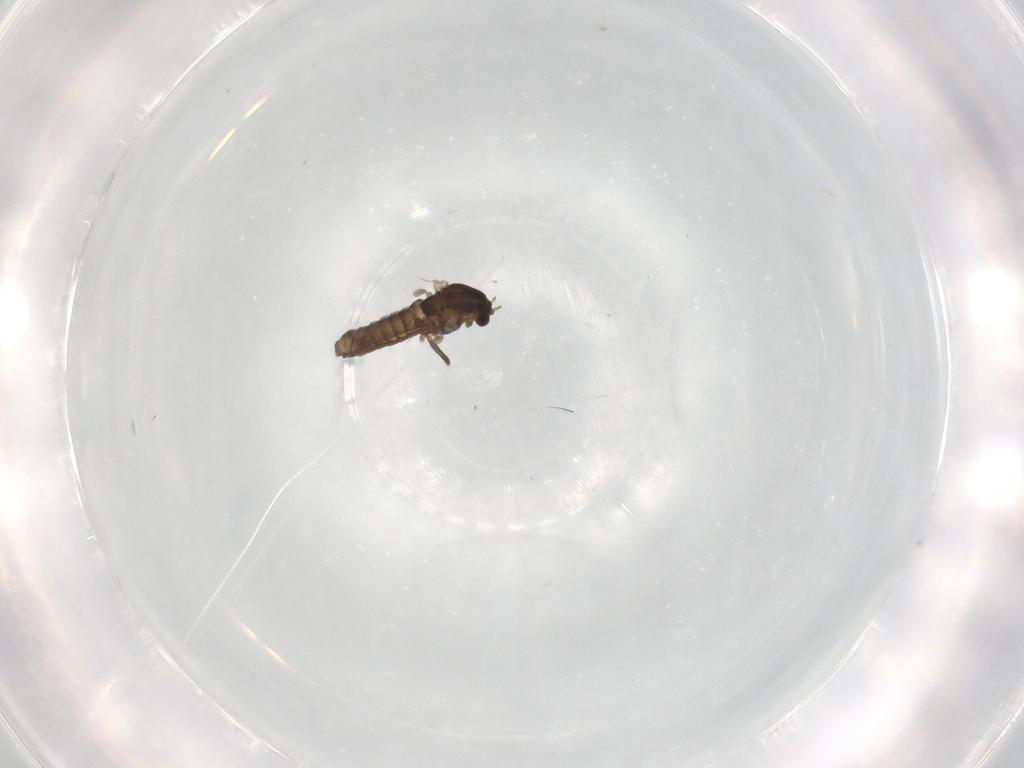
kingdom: Animalia
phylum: Arthropoda
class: Insecta
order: Diptera
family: Chironomidae
